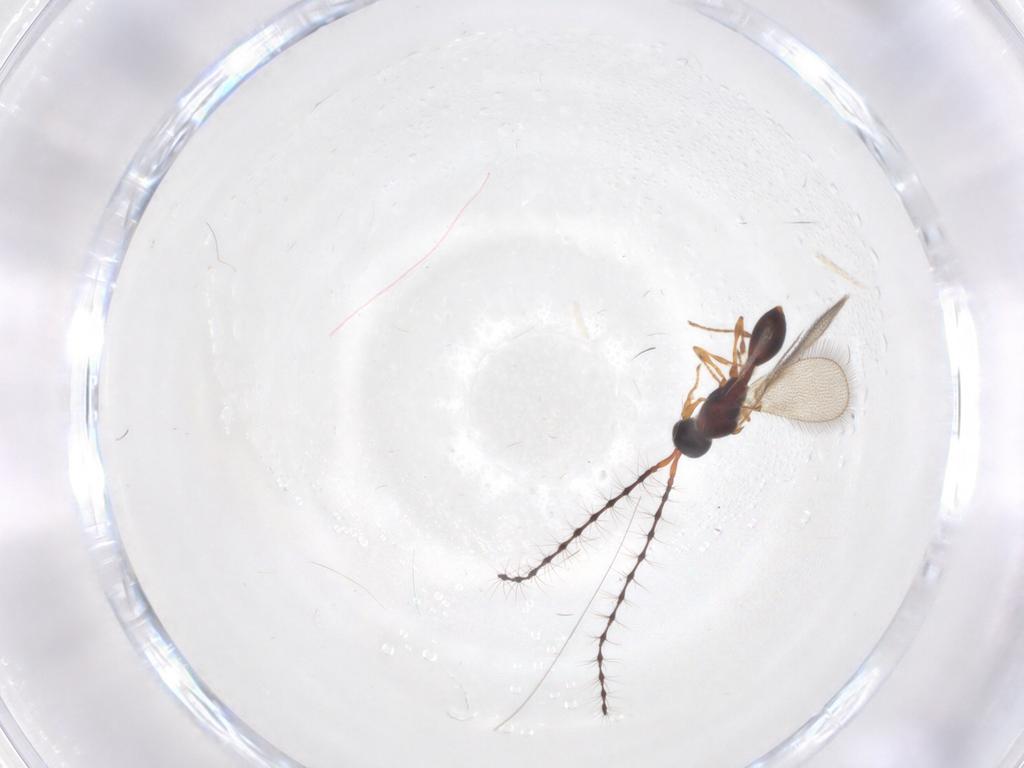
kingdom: Animalia
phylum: Arthropoda
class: Insecta
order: Hymenoptera
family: Diapriidae
